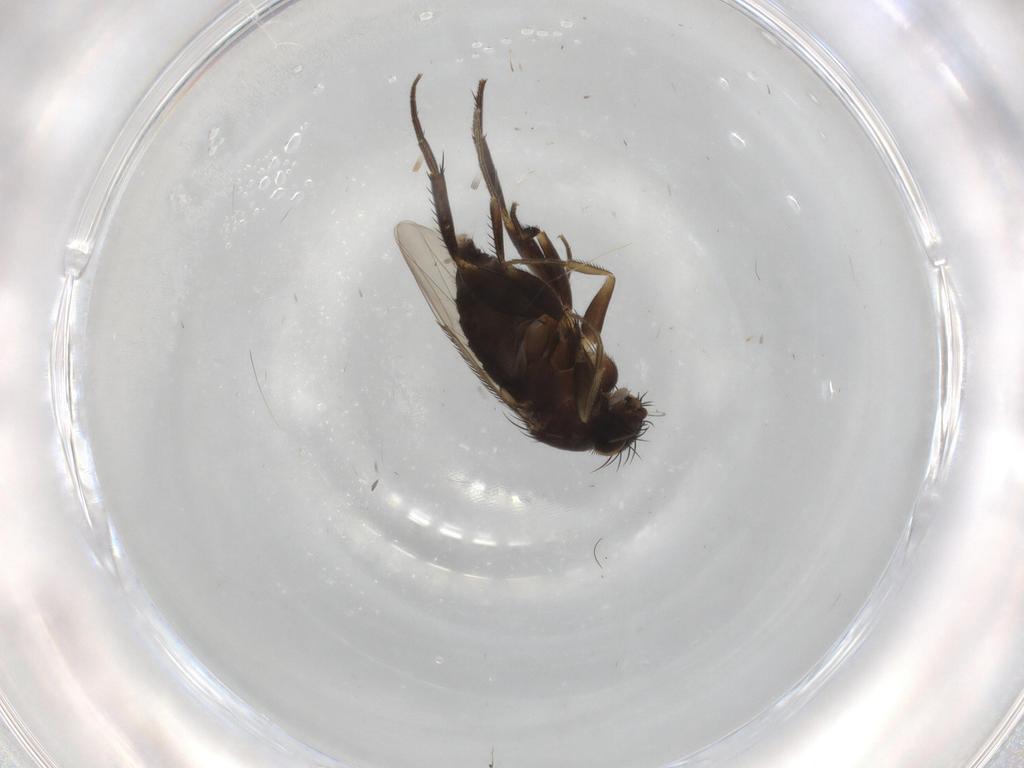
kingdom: Animalia
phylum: Arthropoda
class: Insecta
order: Diptera
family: Phoridae
